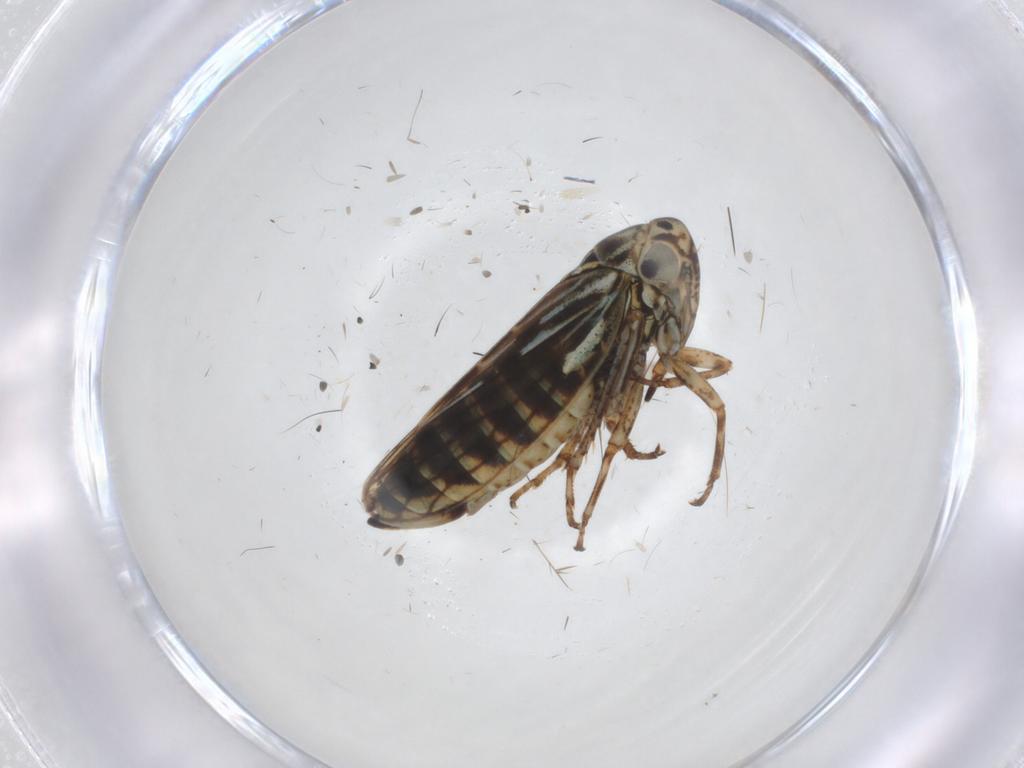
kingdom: Animalia
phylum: Arthropoda
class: Insecta
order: Hemiptera
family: Cicadellidae
